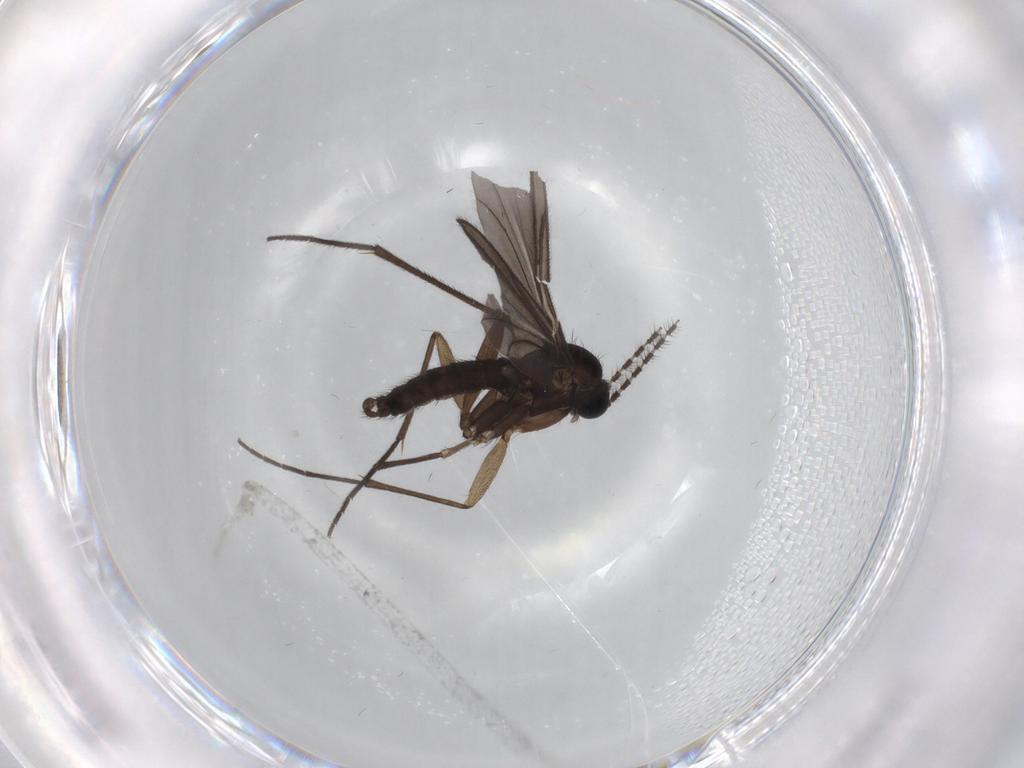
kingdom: Animalia
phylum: Arthropoda
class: Insecta
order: Diptera
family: Sciaridae
